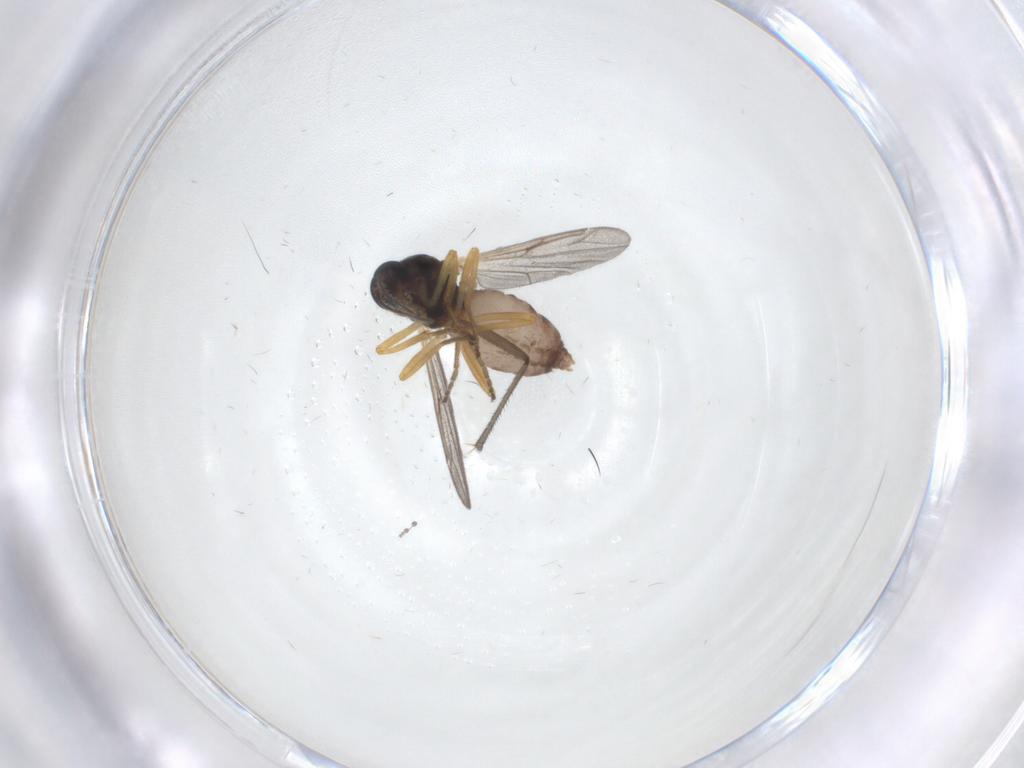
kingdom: Animalia
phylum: Arthropoda
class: Insecta
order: Diptera
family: Ceratopogonidae
